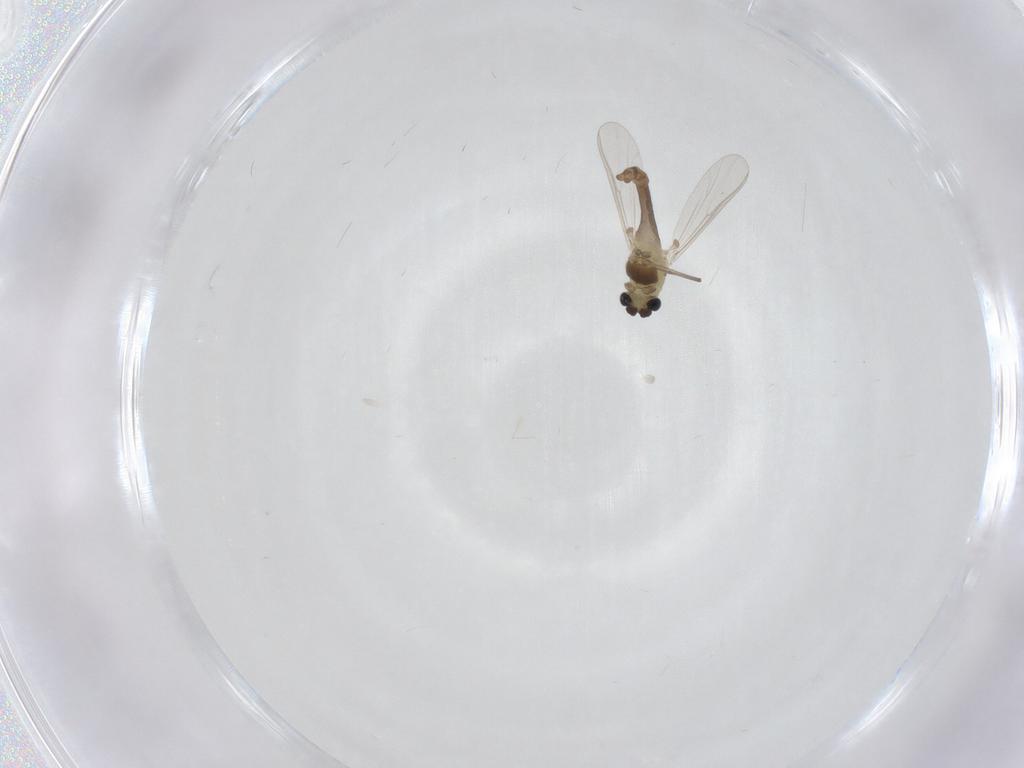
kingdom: Animalia
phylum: Arthropoda
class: Insecta
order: Diptera
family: Chironomidae
